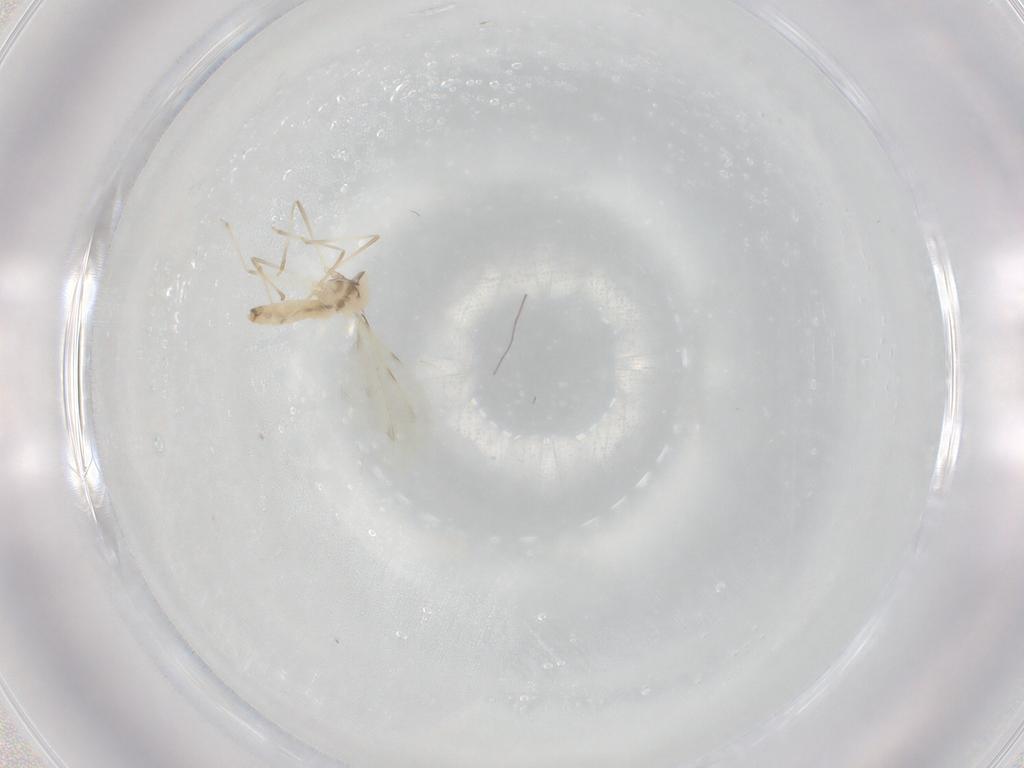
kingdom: Animalia
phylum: Arthropoda
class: Insecta
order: Diptera
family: Cecidomyiidae
